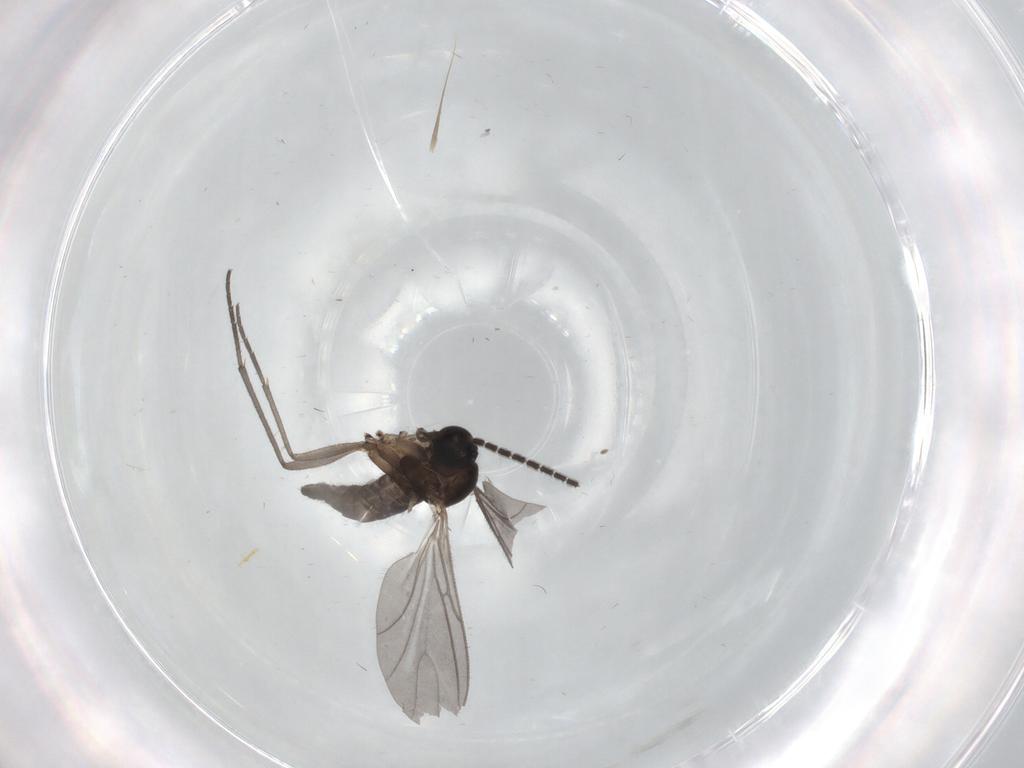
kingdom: Animalia
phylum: Arthropoda
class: Insecta
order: Diptera
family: Sciaridae
